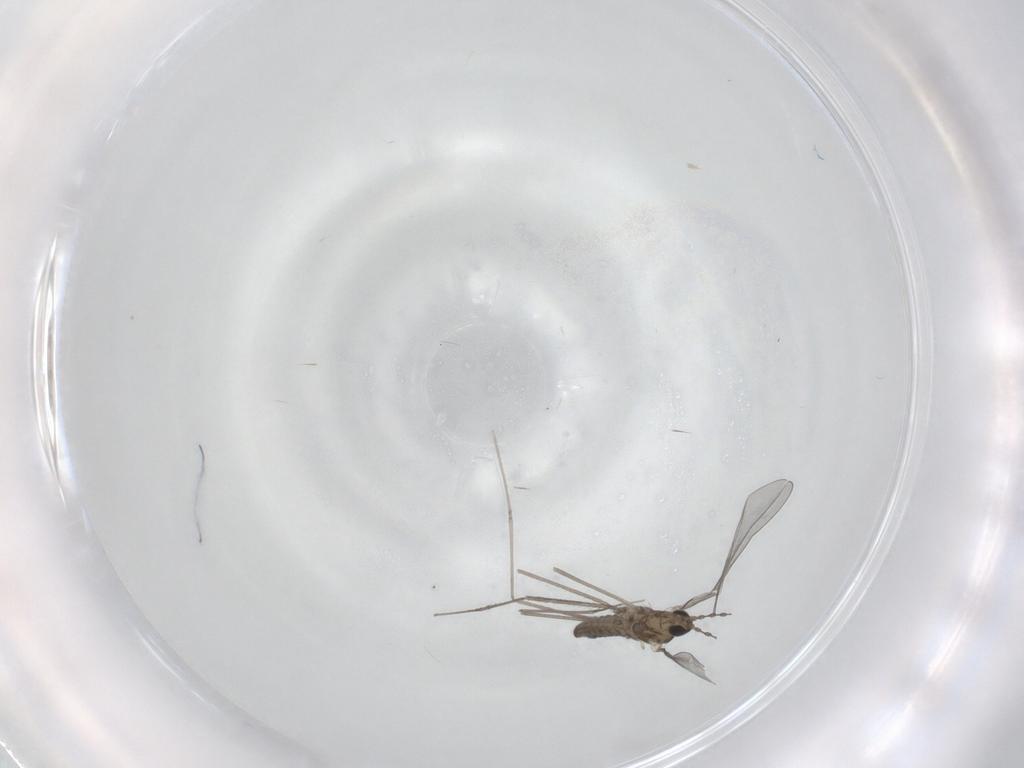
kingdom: Animalia
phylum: Arthropoda
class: Insecta
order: Diptera
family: Cecidomyiidae
